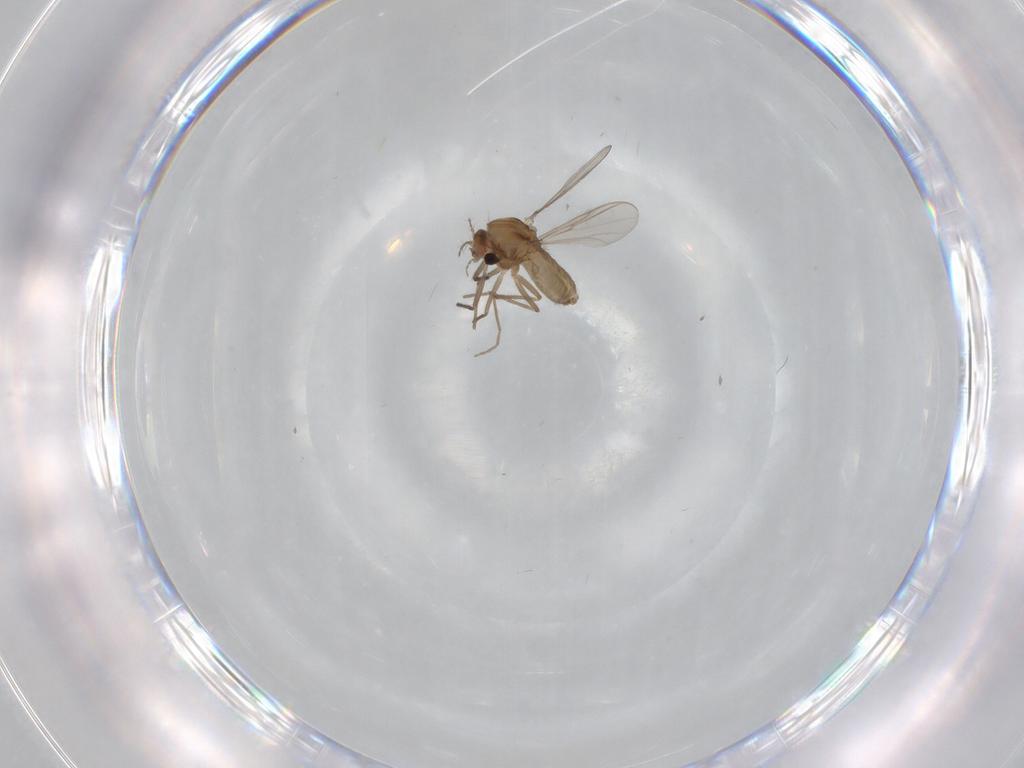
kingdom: Animalia
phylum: Arthropoda
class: Insecta
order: Diptera
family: Chironomidae
